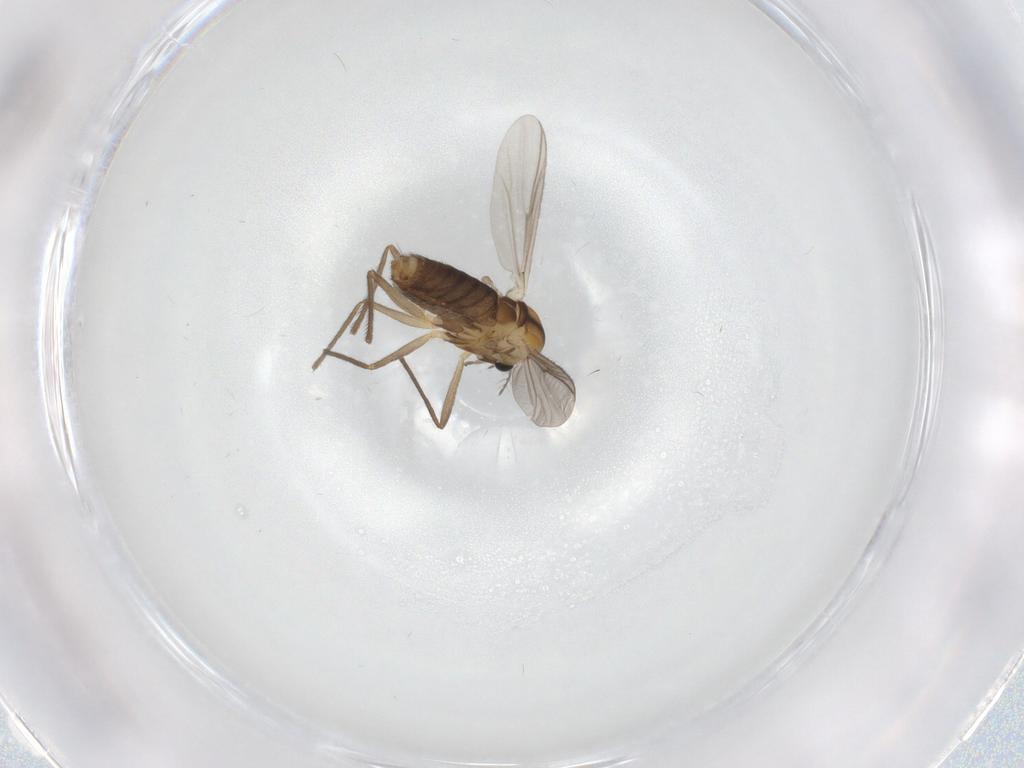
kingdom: Animalia
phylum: Arthropoda
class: Insecta
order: Diptera
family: Chironomidae
